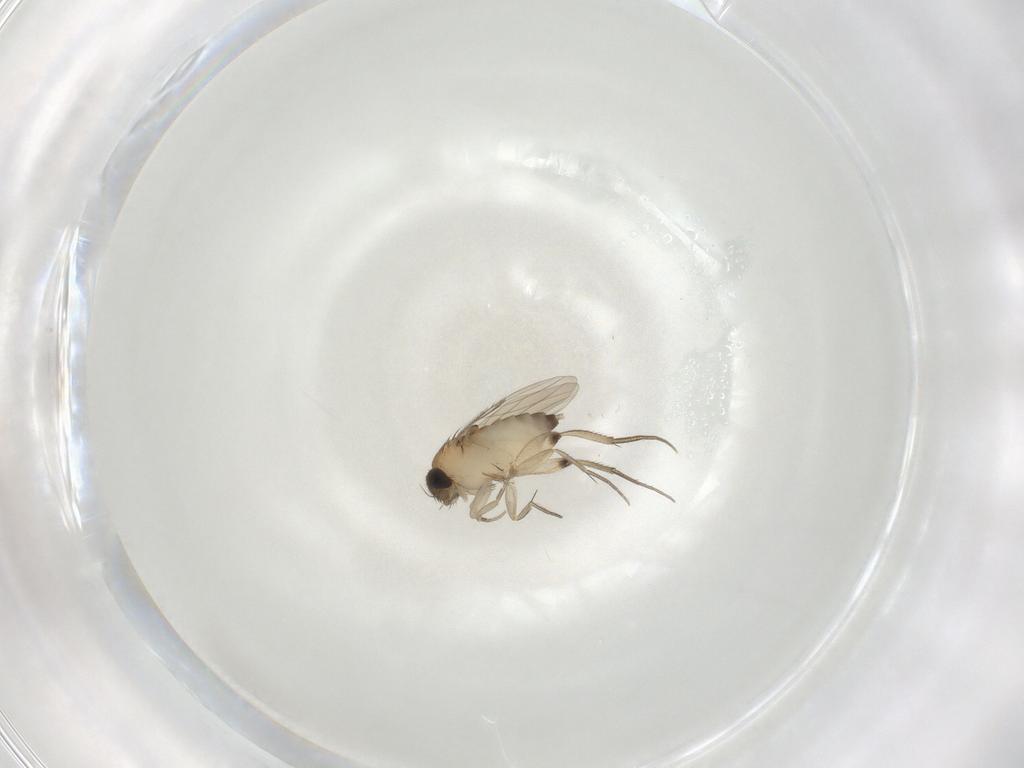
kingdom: Animalia
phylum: Arthropoda
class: Insecta
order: Diptera
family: Phoridae
